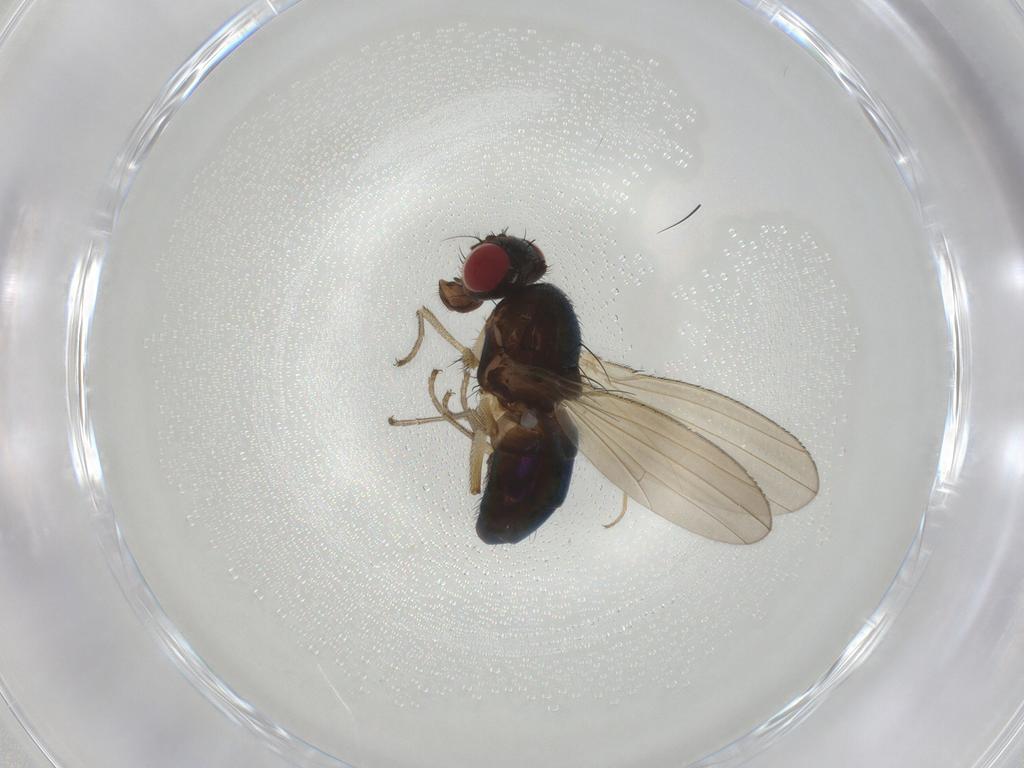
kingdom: Animalia
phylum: Arthropoda
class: Insecta
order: Diptera
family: Camillidae
